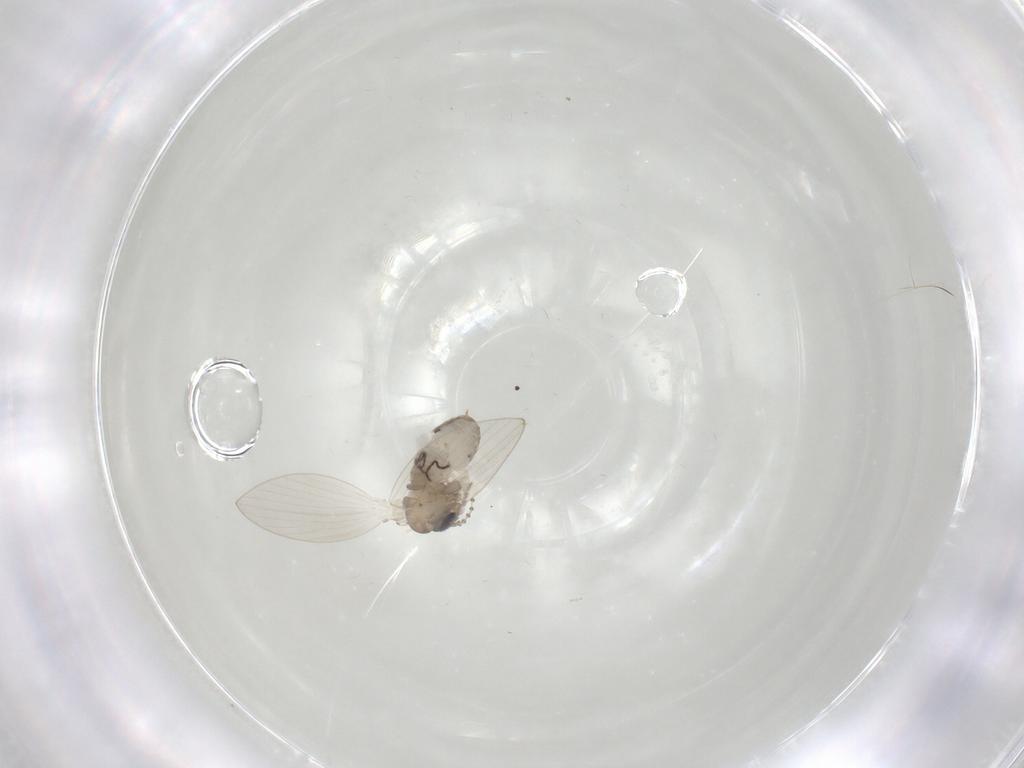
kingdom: Animalia
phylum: Arthropoda
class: Insecta
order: Diptera
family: Psychodidae
